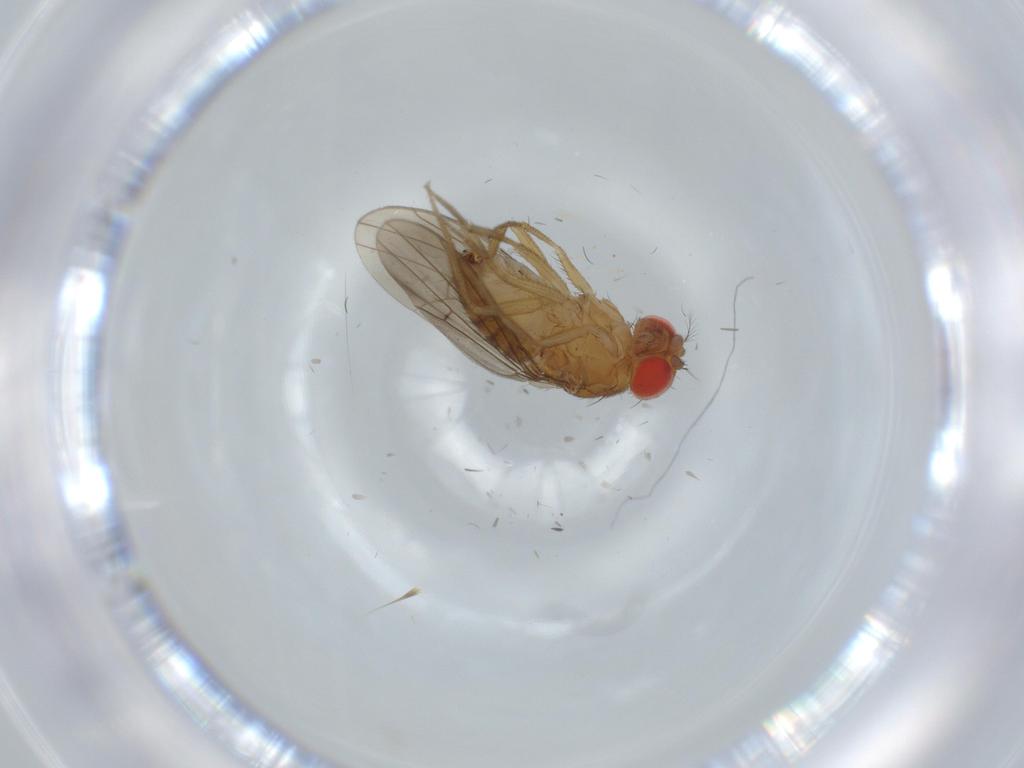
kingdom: Animalia
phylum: Arthropoda
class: Insecta
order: Diptera
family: Drosophilidae
